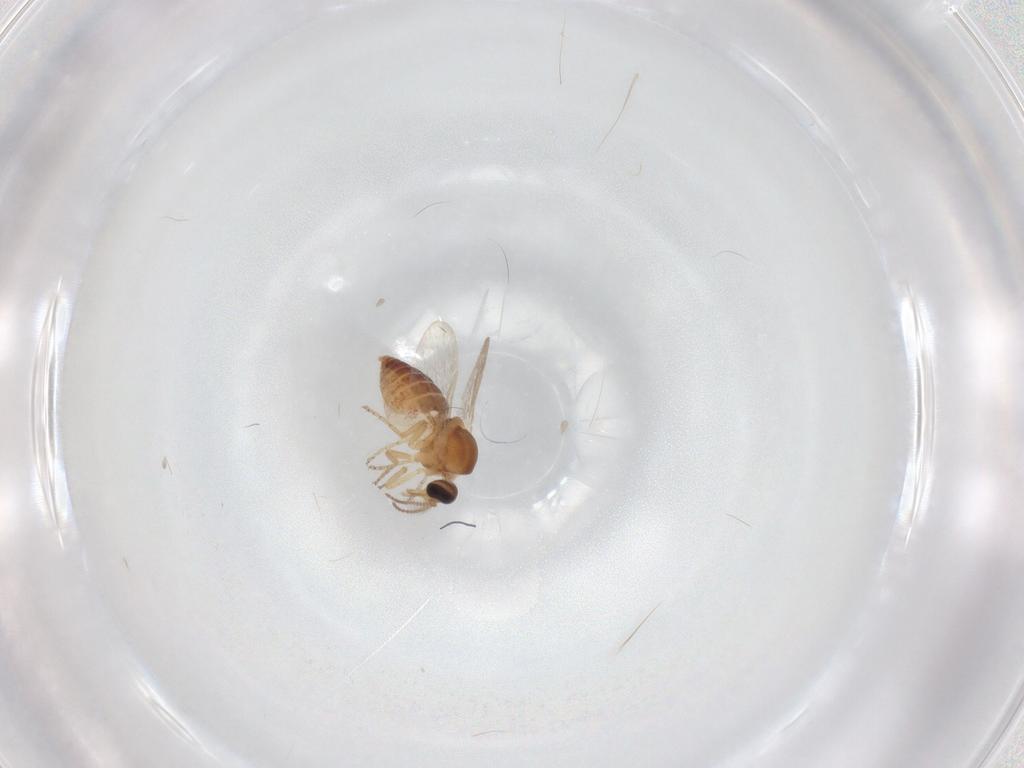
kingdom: Animalia
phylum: Arthropoda
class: Insecta
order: Diptera
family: Ceratopogonidae
